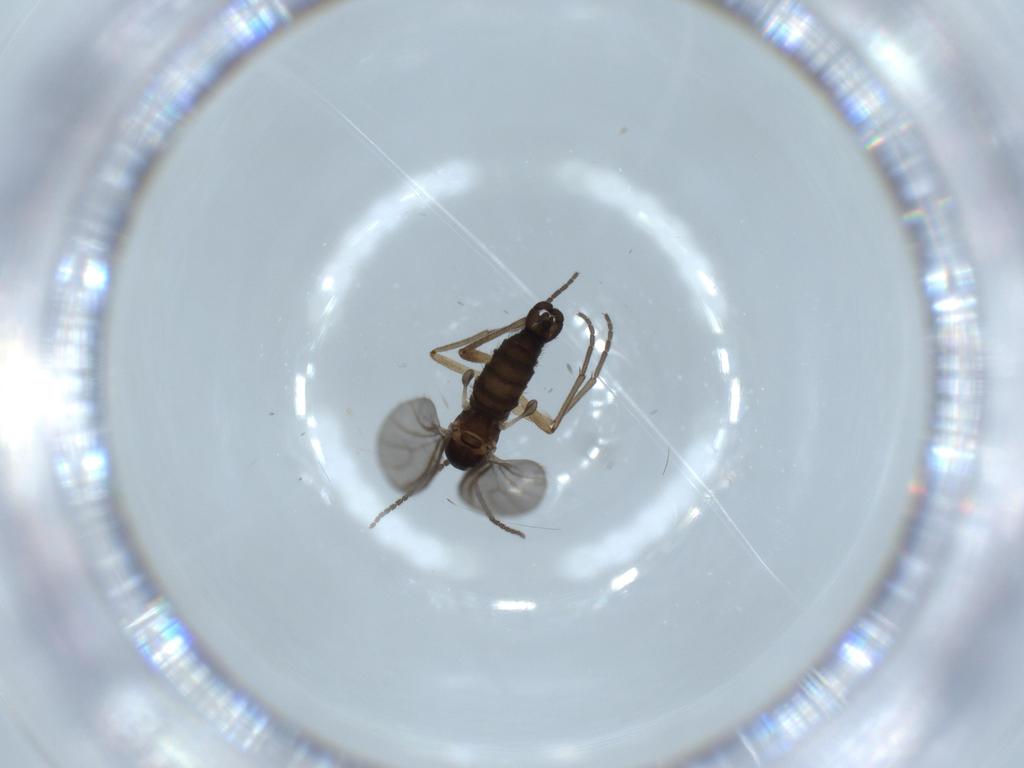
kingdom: Animalia
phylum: Arthropoda
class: Insecta
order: Diptera
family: Sciaridae
